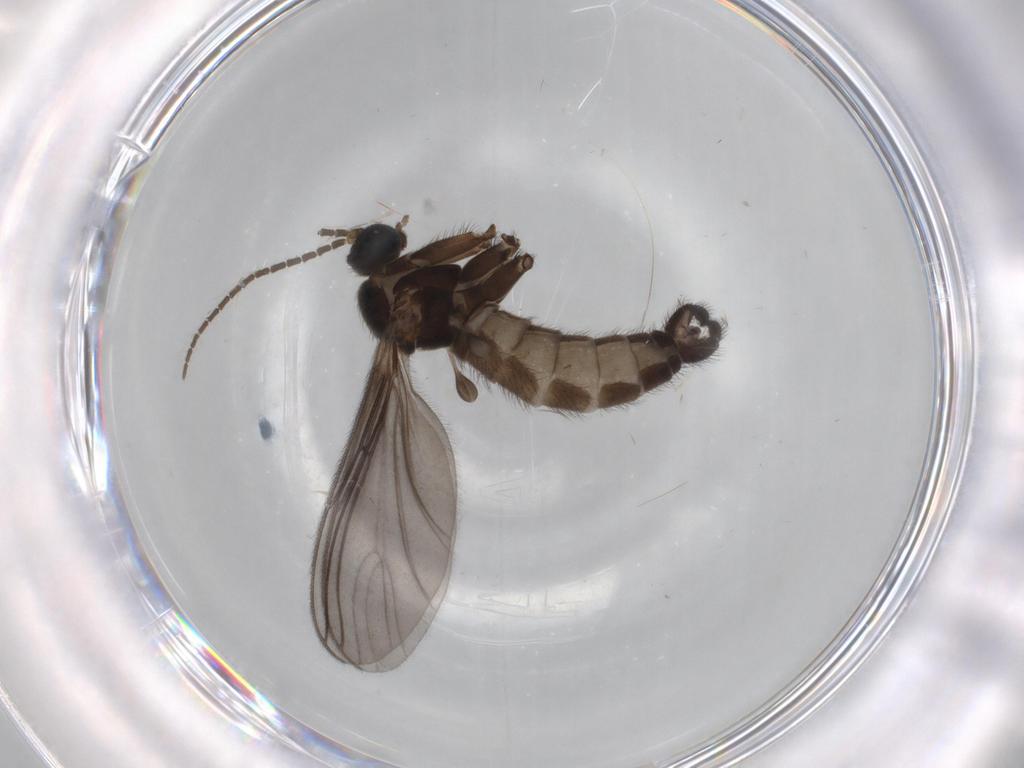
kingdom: Animalia
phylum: Arthropoda
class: Insecta
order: Diptera
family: Sciaridae
